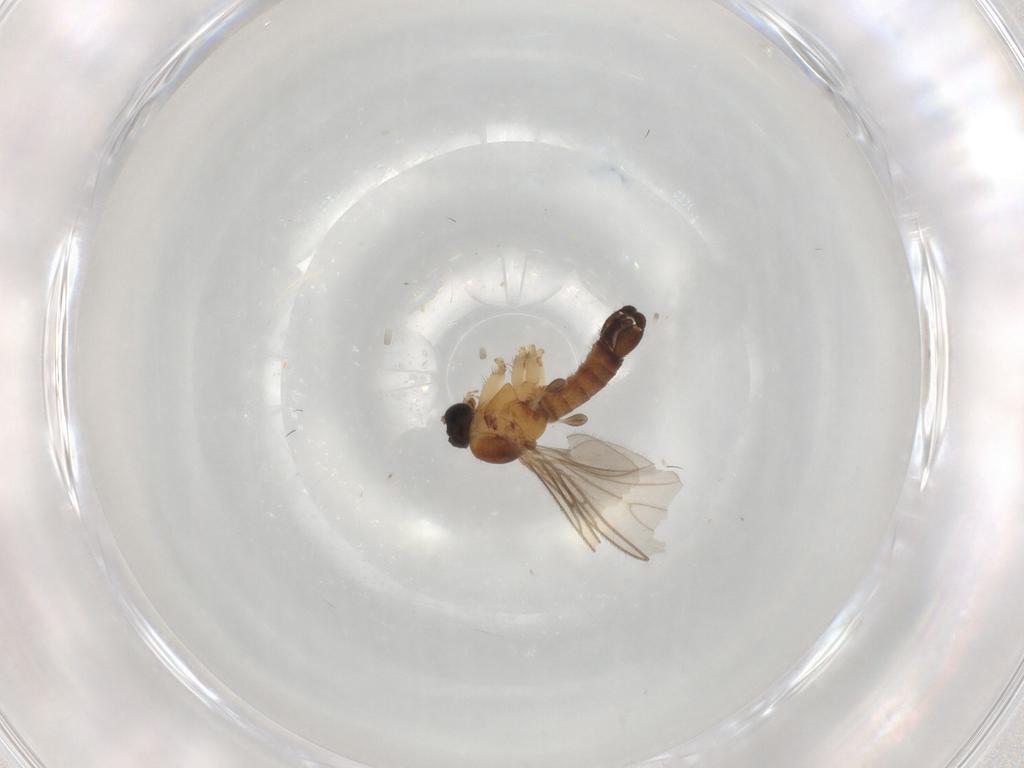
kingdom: Animalia
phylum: Arthropoda
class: Insecta
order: Diptera
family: Sciaridae
